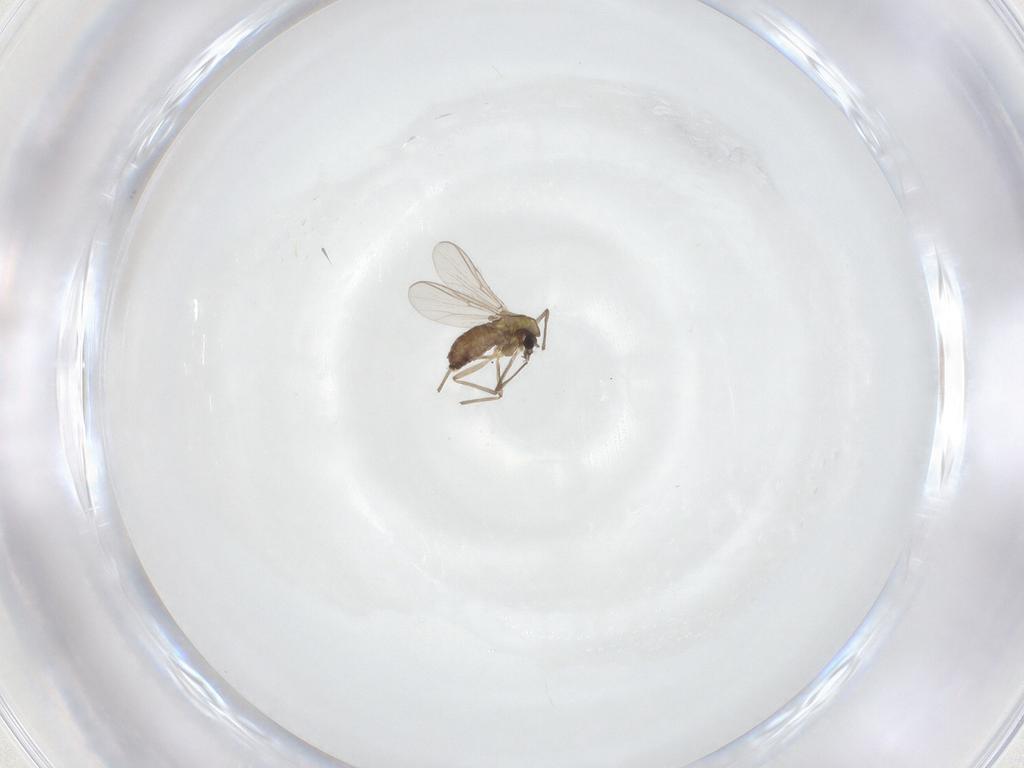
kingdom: Animalia
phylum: Arthropoda
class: Insecta
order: Diptera
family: Chironomidae
